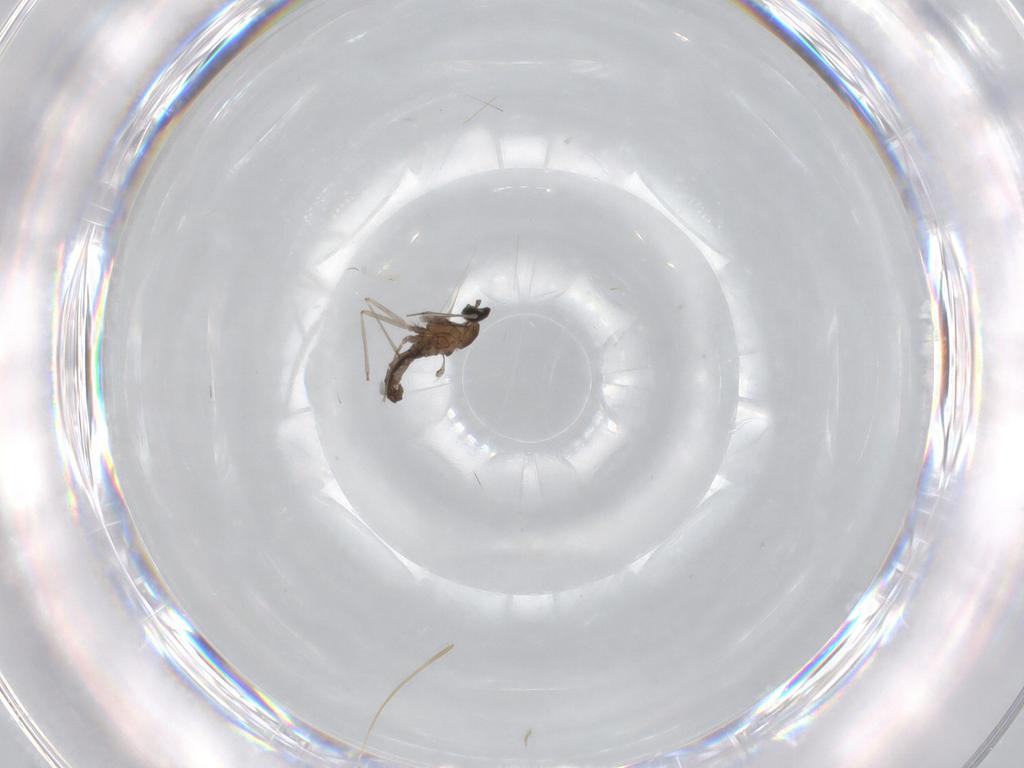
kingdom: Animalia
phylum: Arthropoda
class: Insecta
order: Diptera
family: Cecidomyiidae
